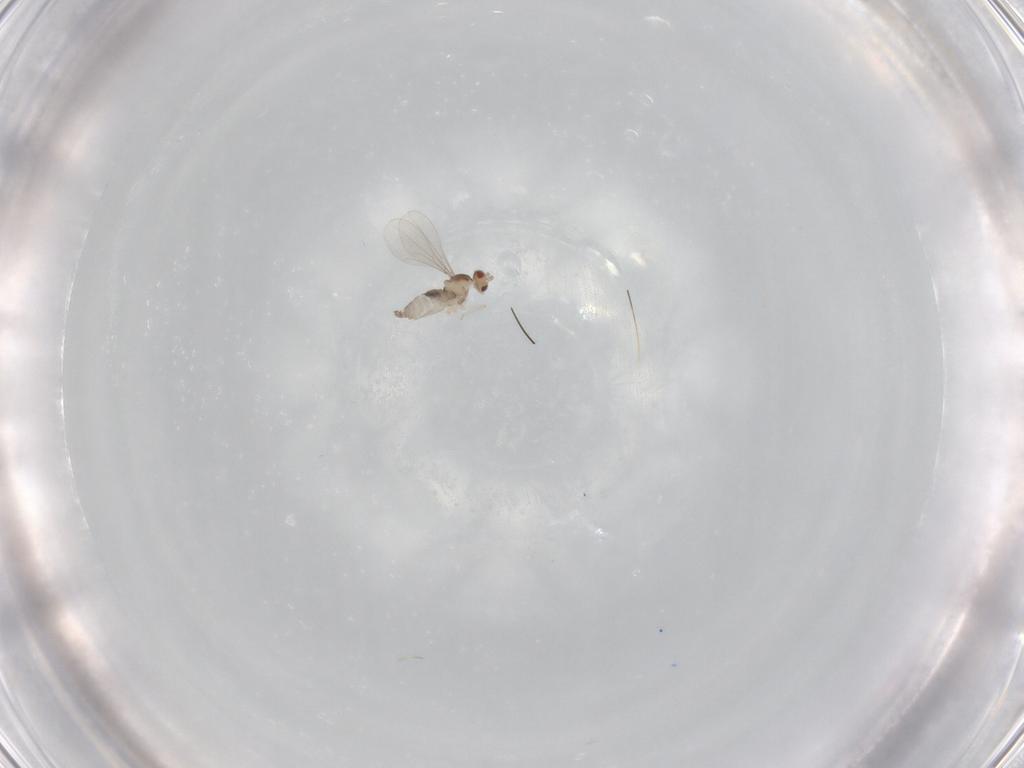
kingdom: Animalia
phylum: Arthropoda
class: Insecta
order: Diptera
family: Cecidomyiidae
